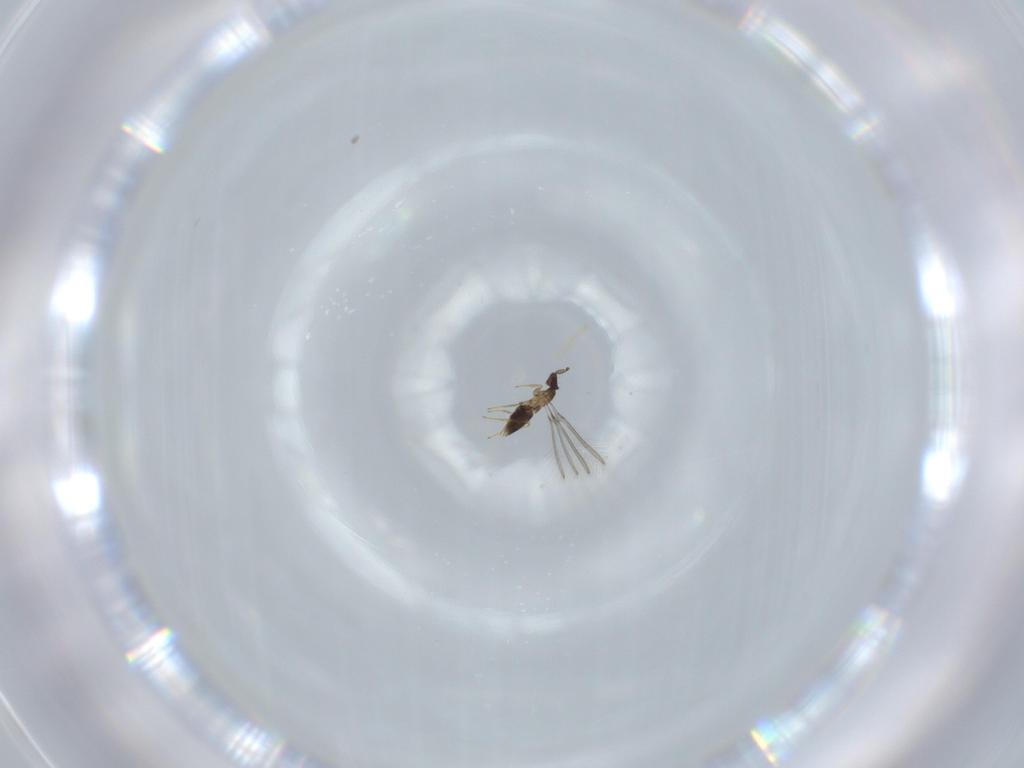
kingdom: Animalia
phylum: Arthropoda
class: Insecta
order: Hymenoptera
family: Mymaridae
